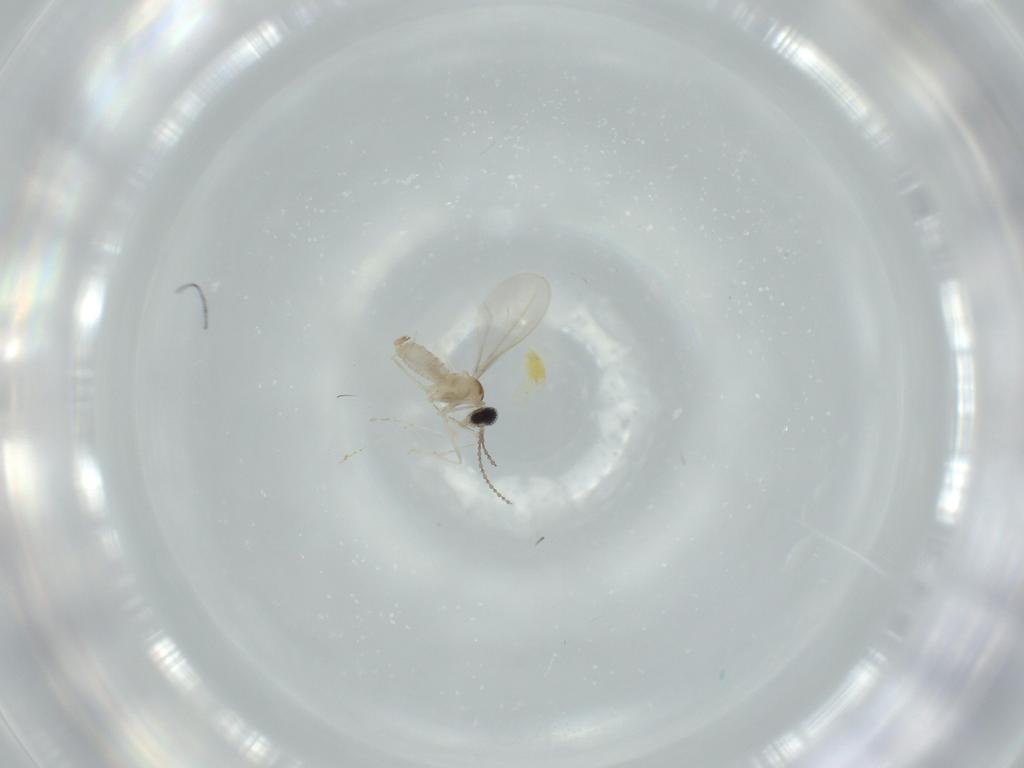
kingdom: Animalia
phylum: Arthropoda
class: Insecta
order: Diptera
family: Cecidomyiidae
